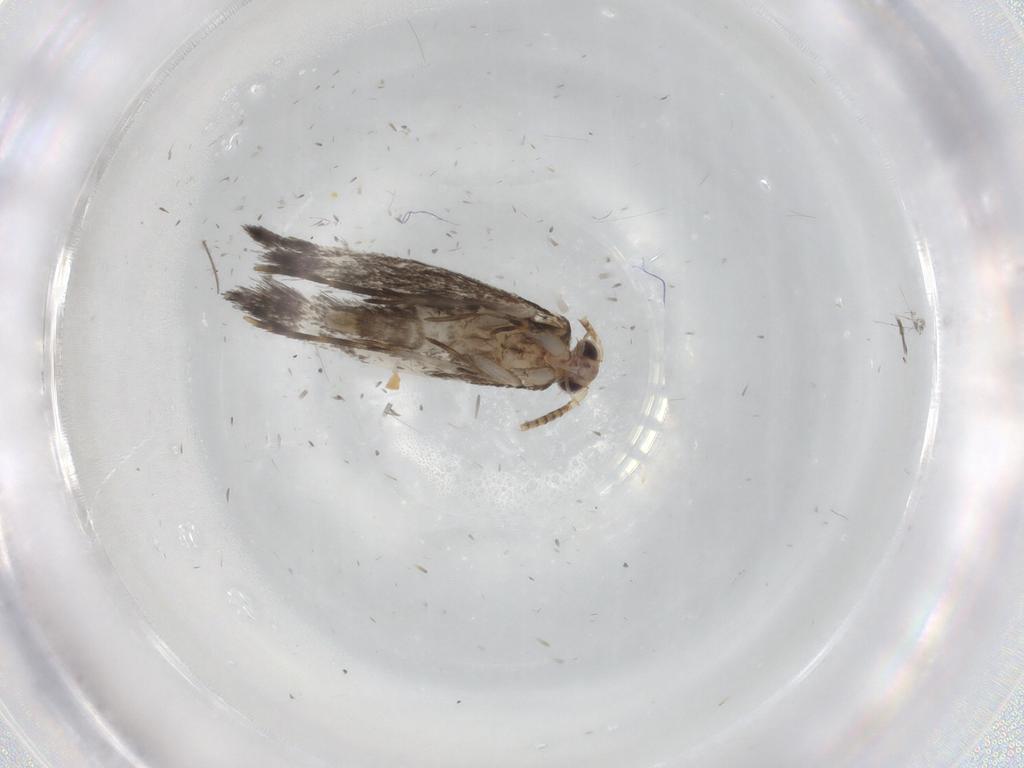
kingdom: Animalia
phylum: Arthropoda
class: Insecta
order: Lepidoptera
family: Tineidae
